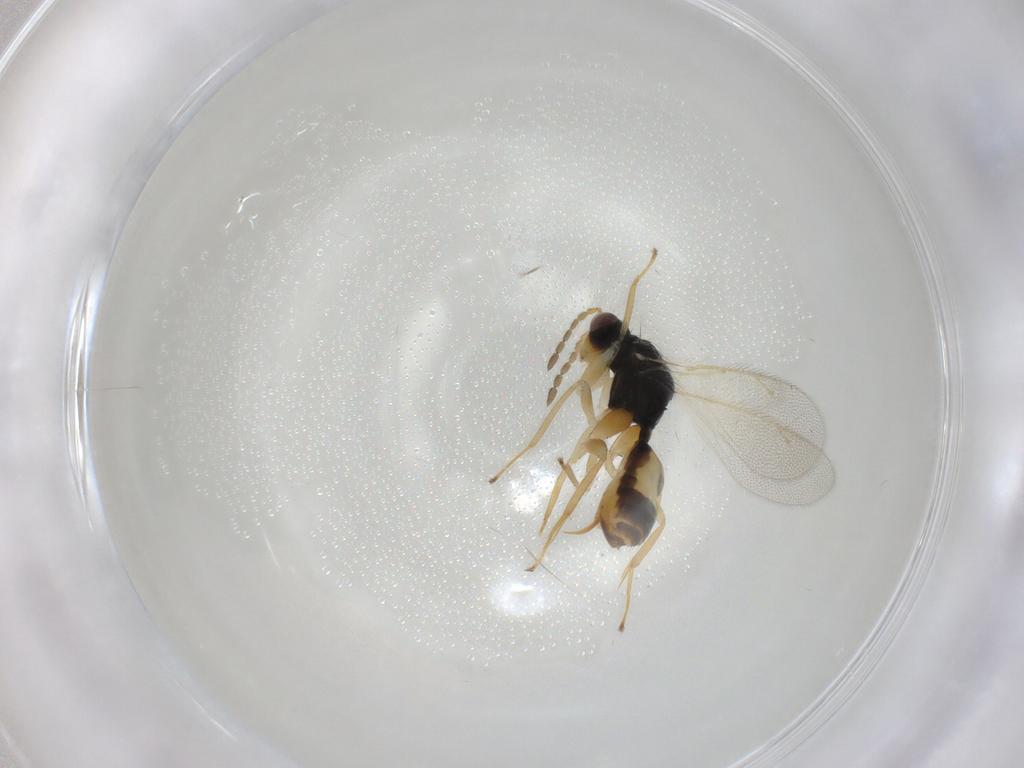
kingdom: Animalia
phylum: Arthropoda
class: Insecta
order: Hymenoptera
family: Eulophidae
